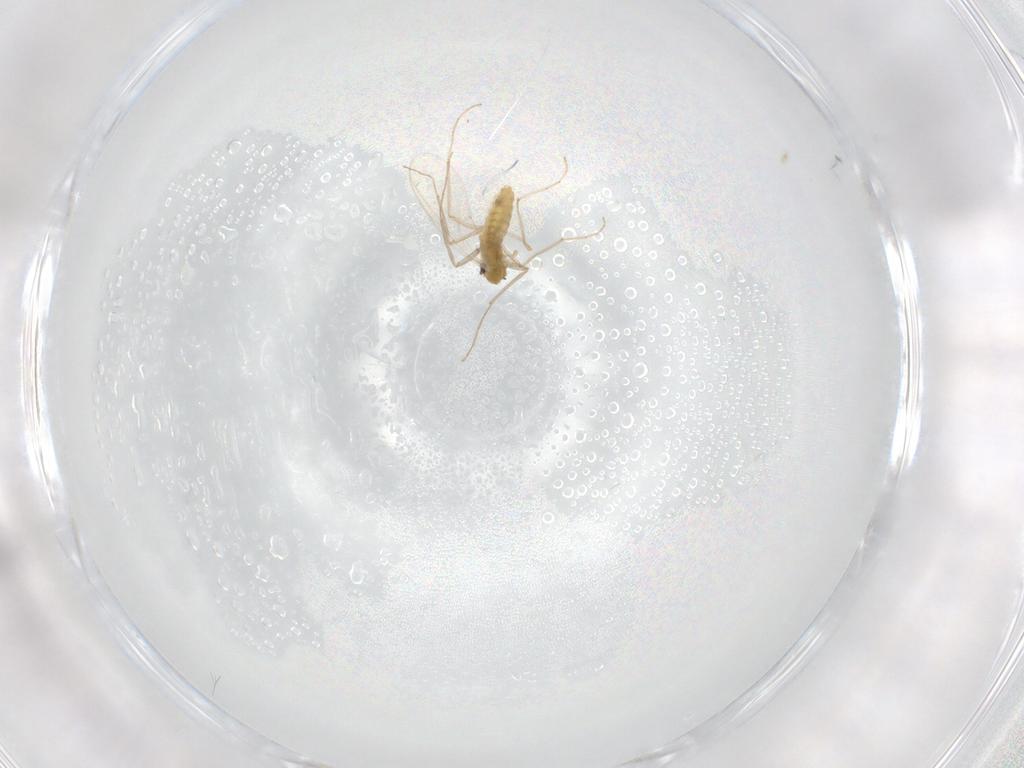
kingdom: Animalia
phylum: Arthropoda
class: Insecta
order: Diptera
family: Chironomidae
